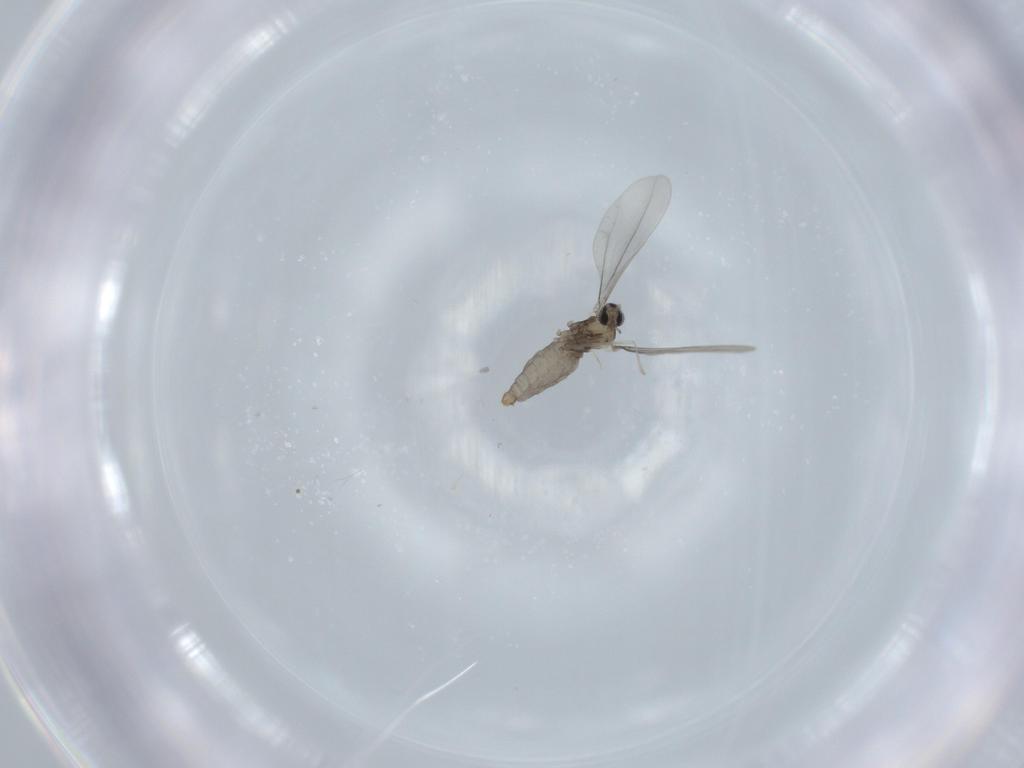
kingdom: Animalia
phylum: Arthropoda
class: Insecta
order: Diptera
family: Cecidomyiidae
